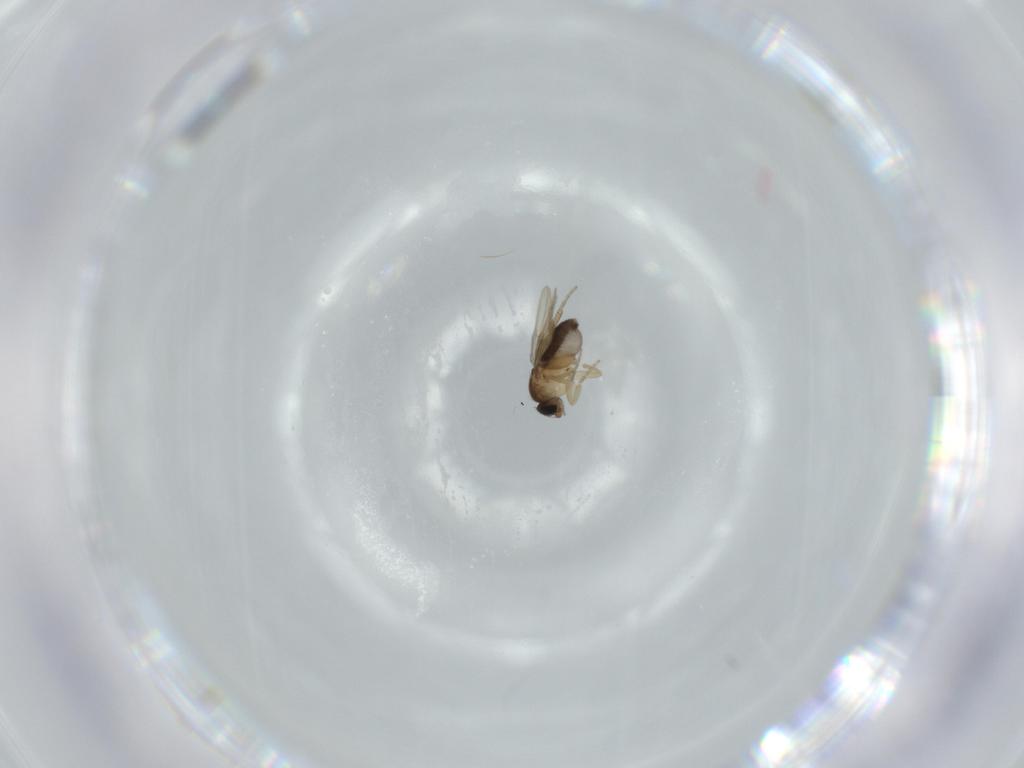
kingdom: Animalia
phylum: Arthropoda
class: Insecta
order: Diptera
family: Phoridae
